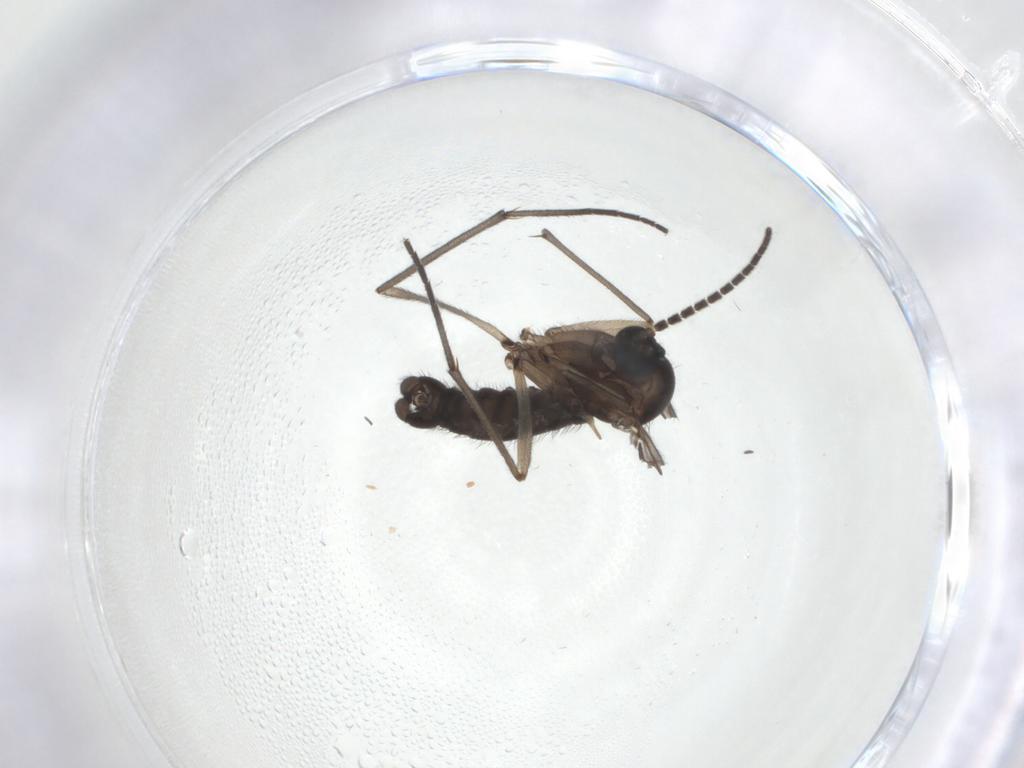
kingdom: Animalia
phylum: Arthropoda
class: Insecta
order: Diptera
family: Sciaridae
